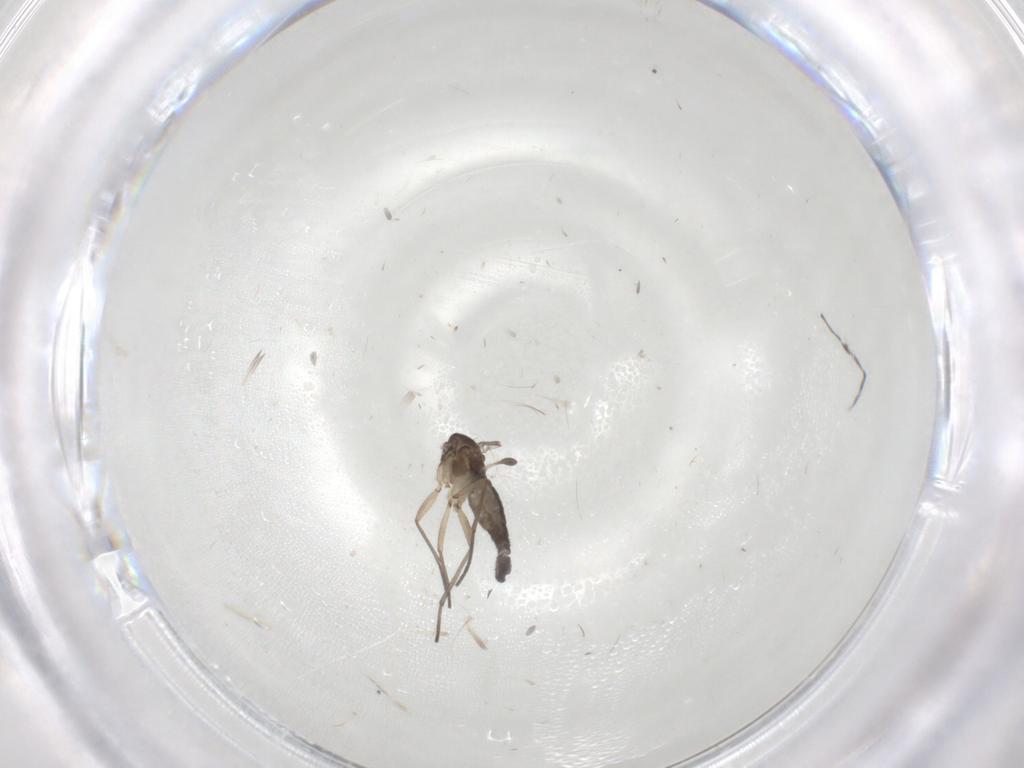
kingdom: Animalia
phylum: Arthropoda
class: Insecta
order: Diptera
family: Sciaridae
